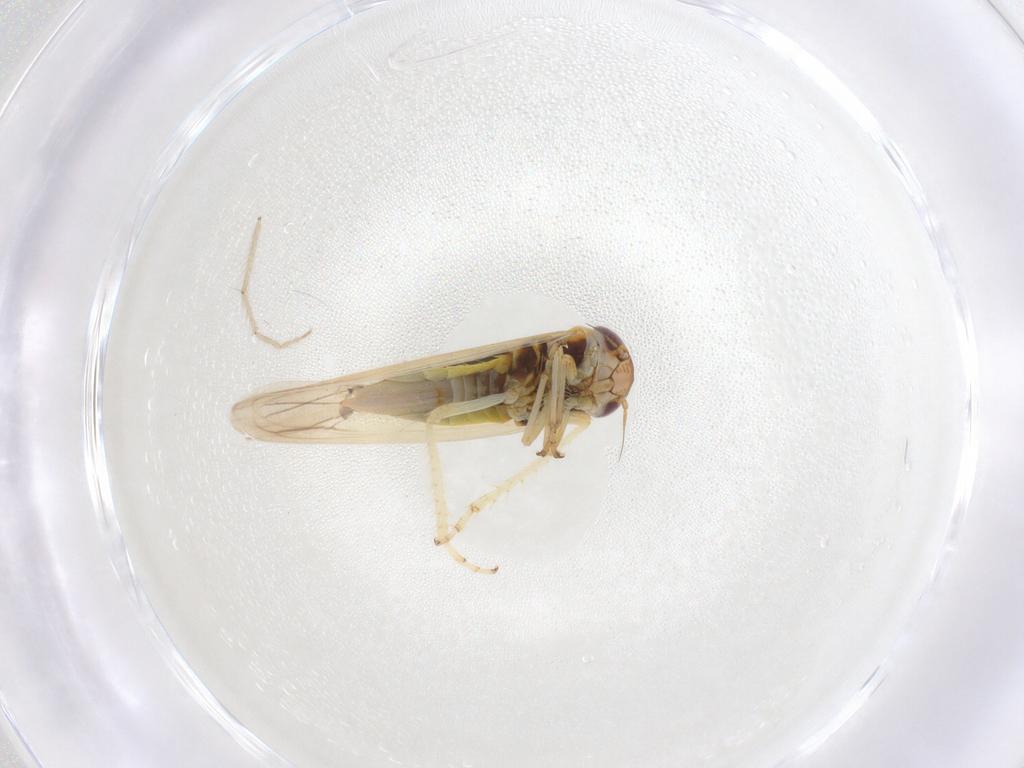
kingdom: Animalia
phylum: Arthropoda
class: Insecta
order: Hemiptera
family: Cicadellidae
